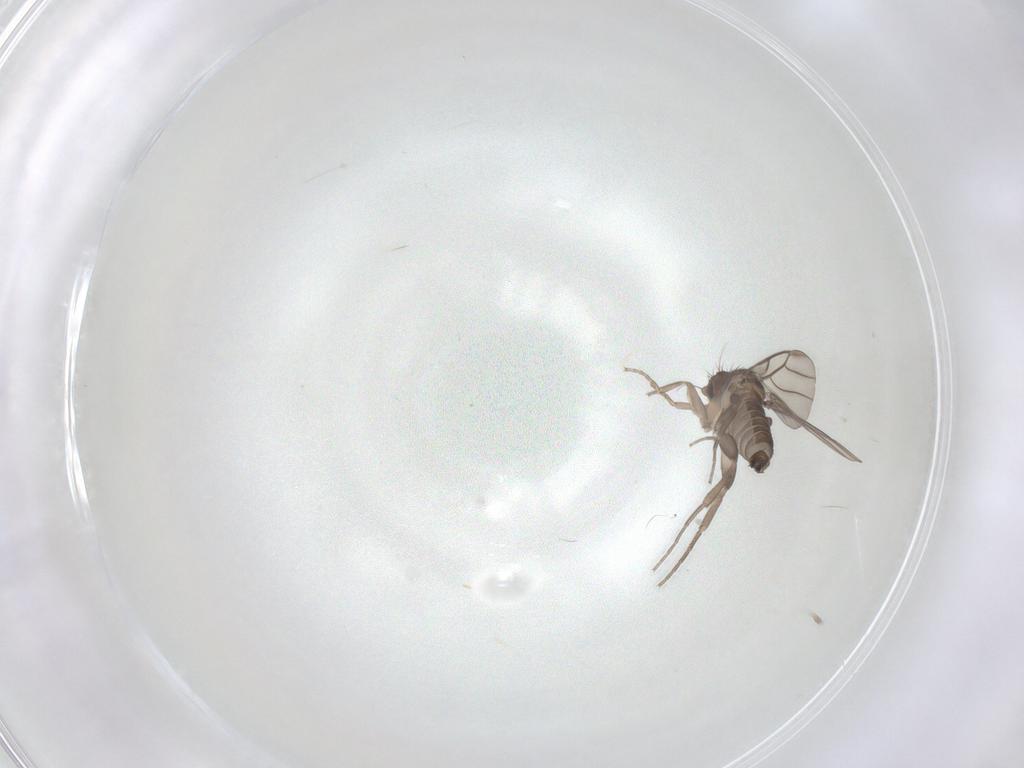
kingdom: Animalia
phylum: Arthropoda
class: Insecta
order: Diptera
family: Phoridae
